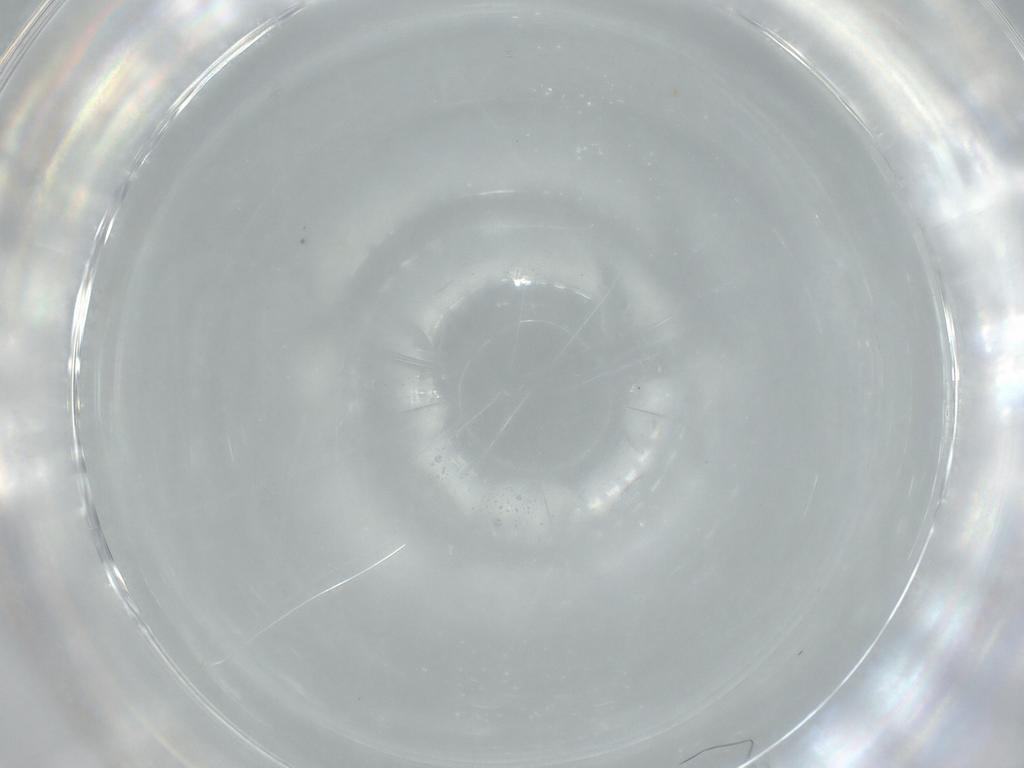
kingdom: Animalia
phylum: Arthropoda
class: Insecta
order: Hemiptera
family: Aleyrodidae
